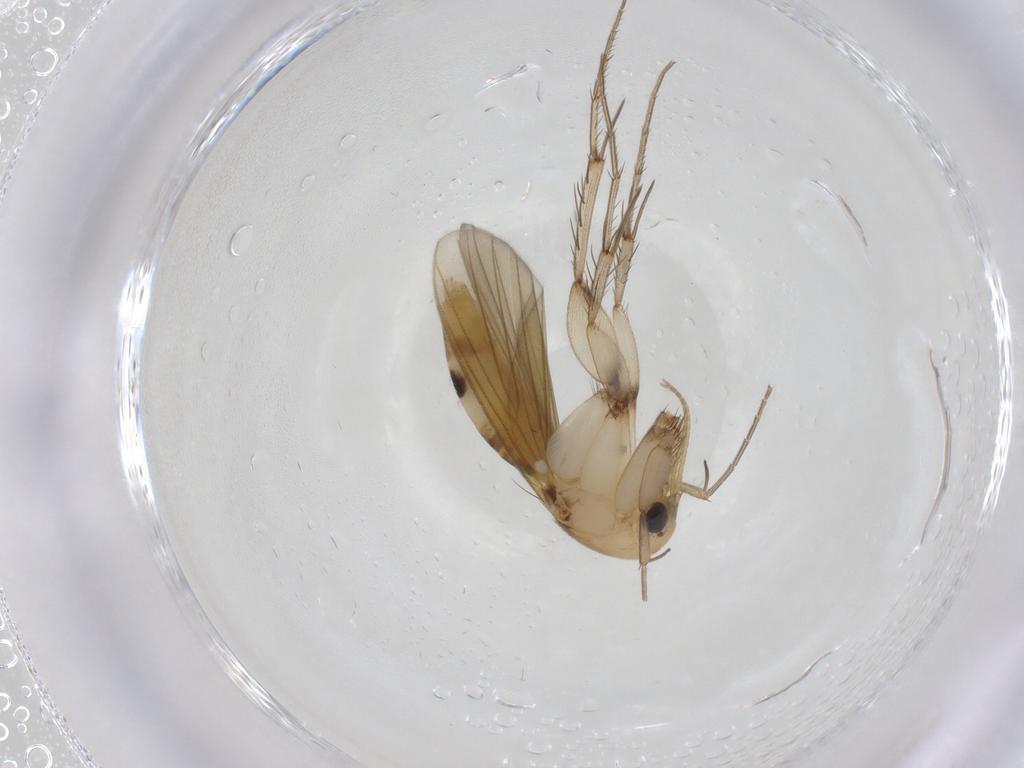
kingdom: Animalia
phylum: Arthropoda
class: Insecta
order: Diptera
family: Mycetophilidae
